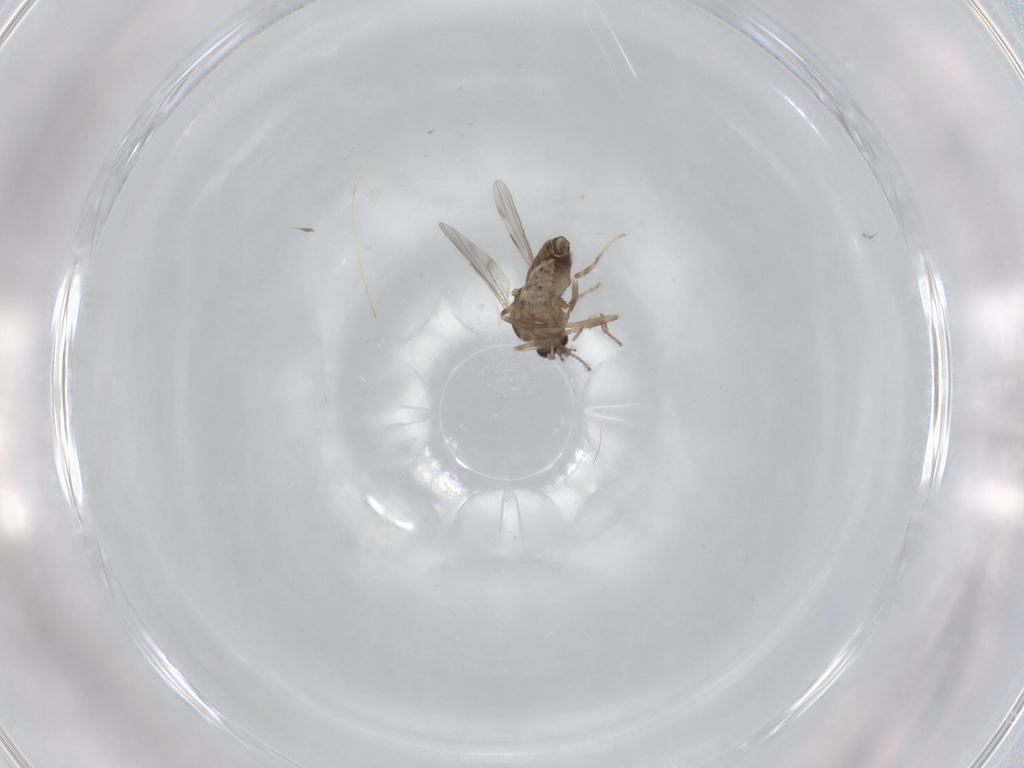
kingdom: Animalia
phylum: Arthropoda
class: Insecta
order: Diptera
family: Ceratopogonidae
